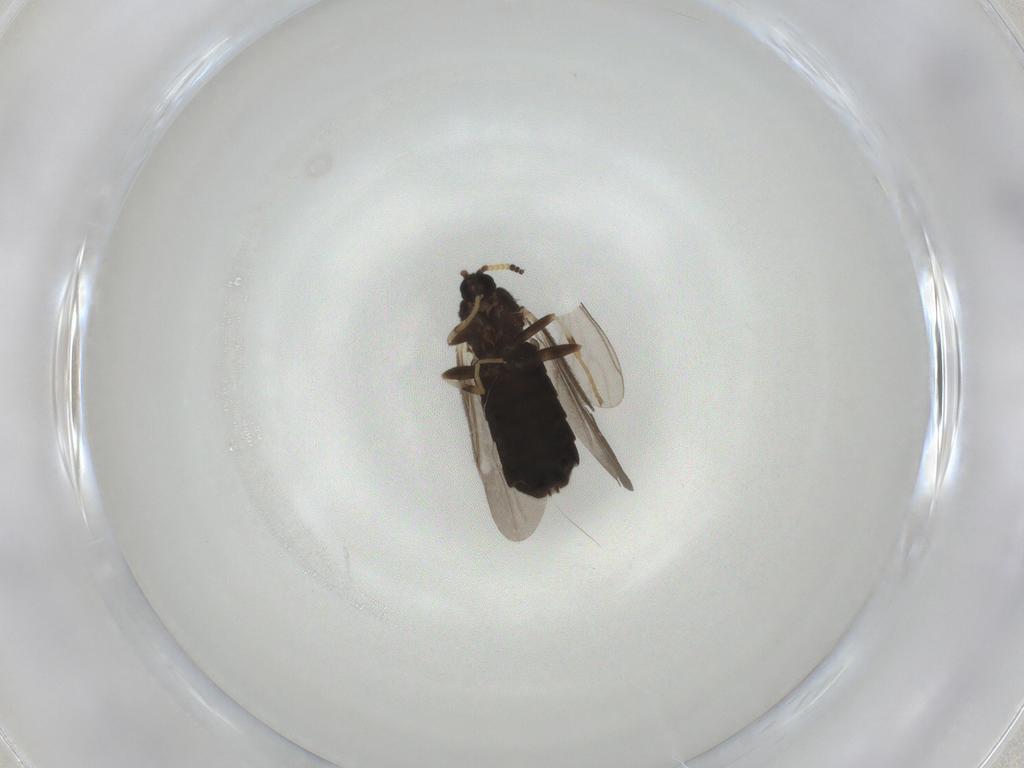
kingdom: Animalia
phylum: Arthropoda
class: Insecta
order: Diptera
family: Scatopsidae
